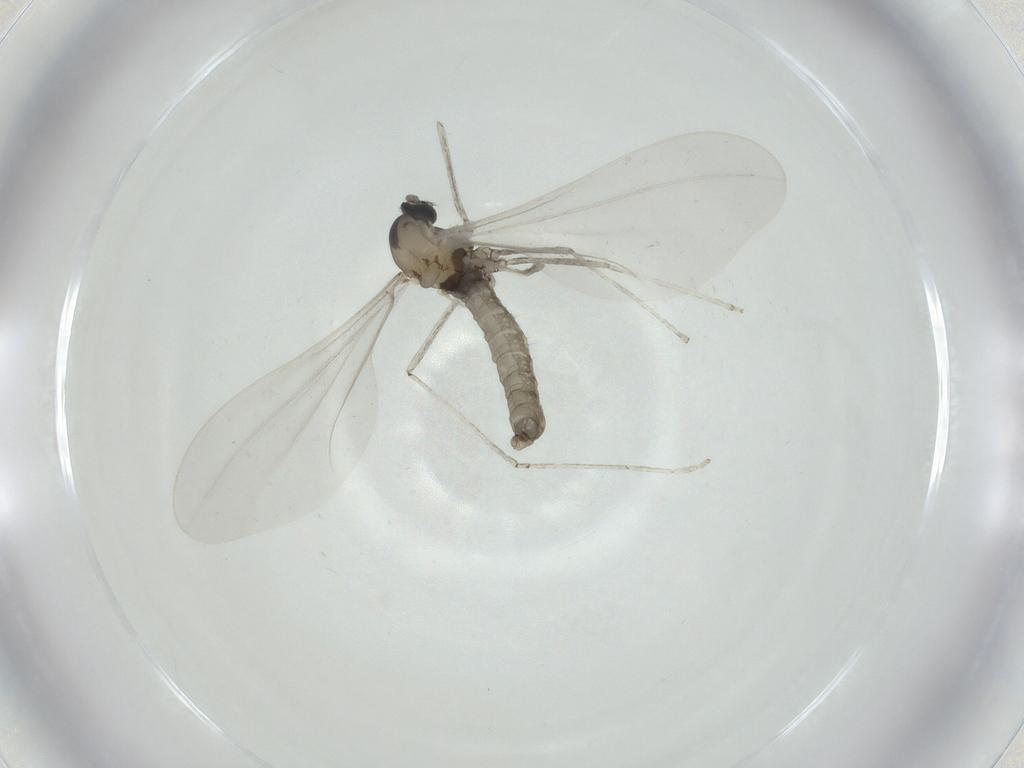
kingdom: Animalia
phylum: Arthropoda
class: Insecta
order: Diptera
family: Cecidomyiidae
